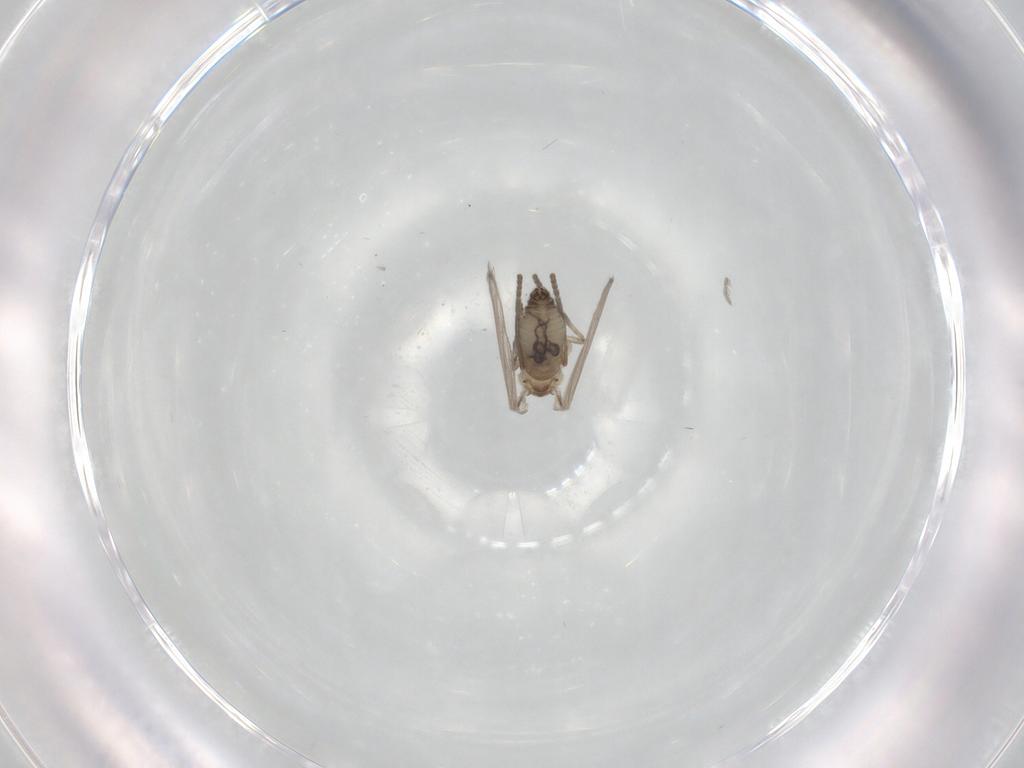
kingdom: Animalia
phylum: Arthropoda
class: Insecta
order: Diptera
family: Psychodidae
